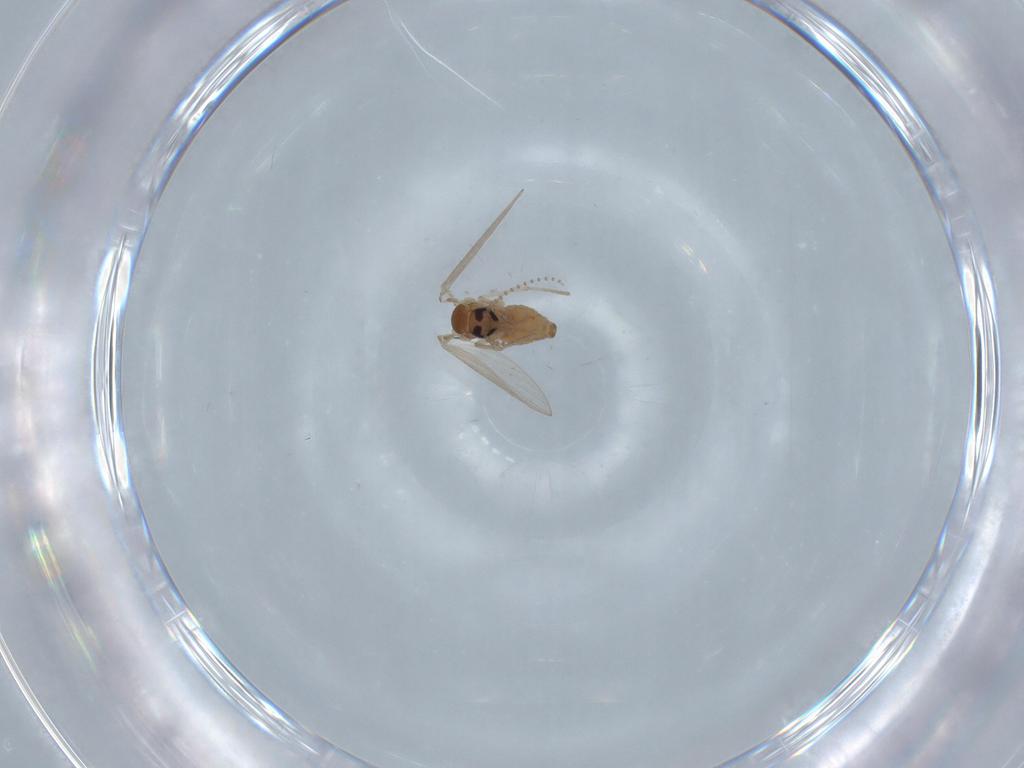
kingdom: Animalia
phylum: Arthropoda
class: Insecta
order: Diptera
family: Psychodidae
